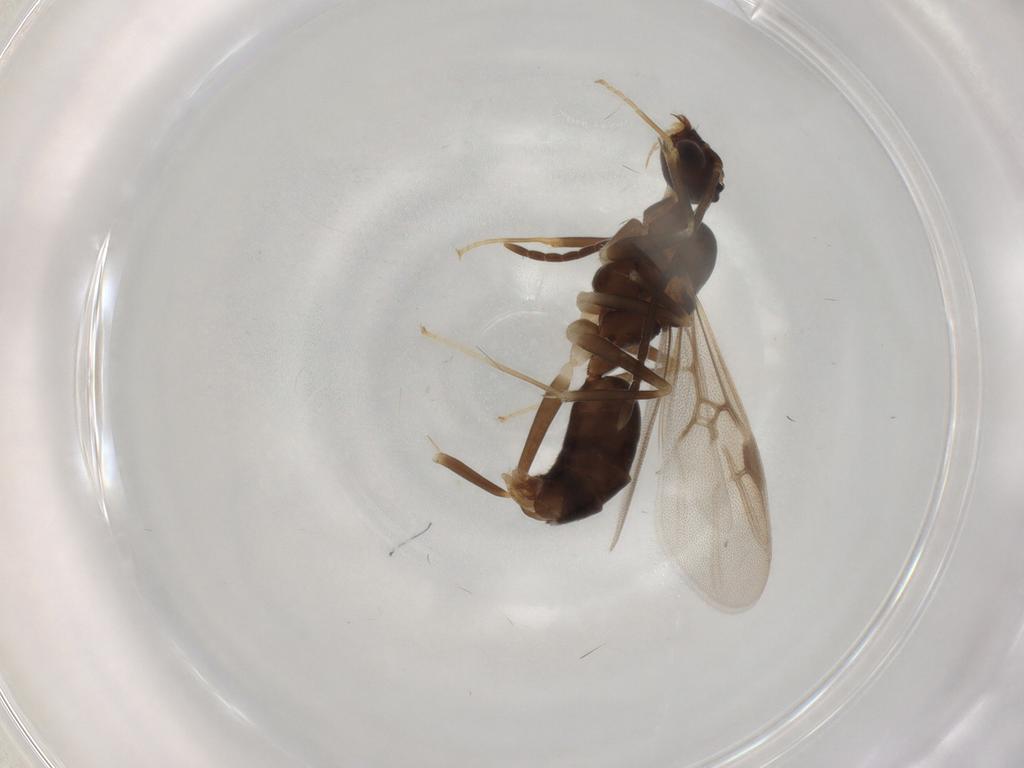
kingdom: Animalia
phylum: Arthropoda
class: Insecta
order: Hymenoptera
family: Formicidae
